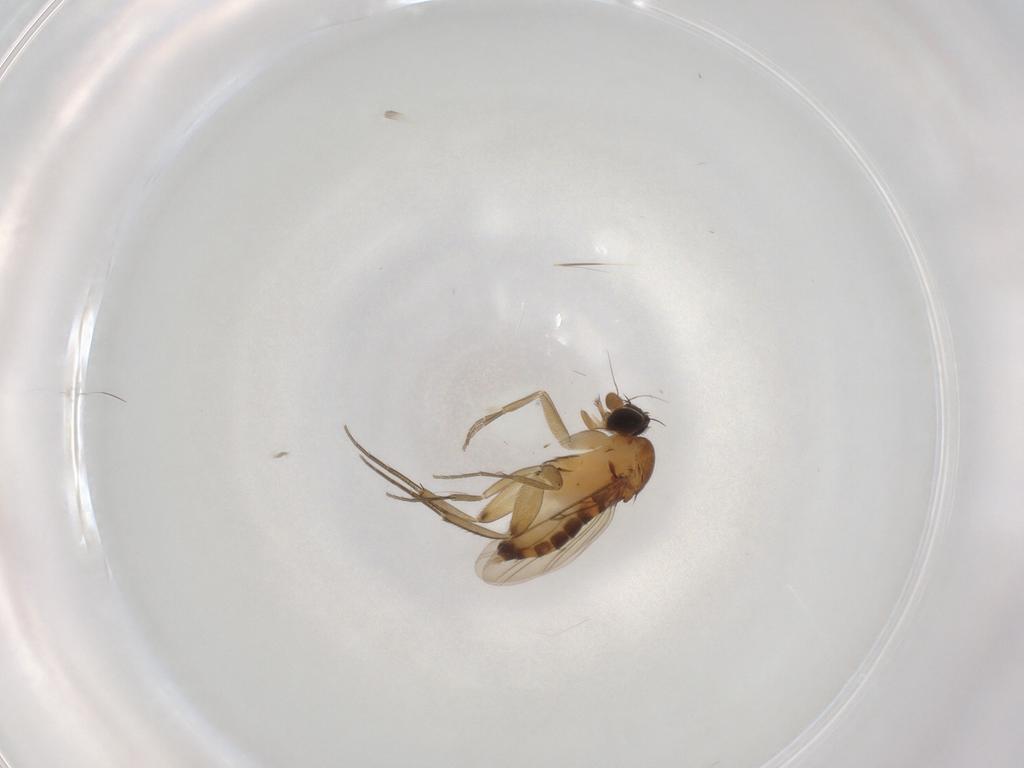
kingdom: Animalia
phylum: Arthropoda
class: Insecta
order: Diptera
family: Phoridae
